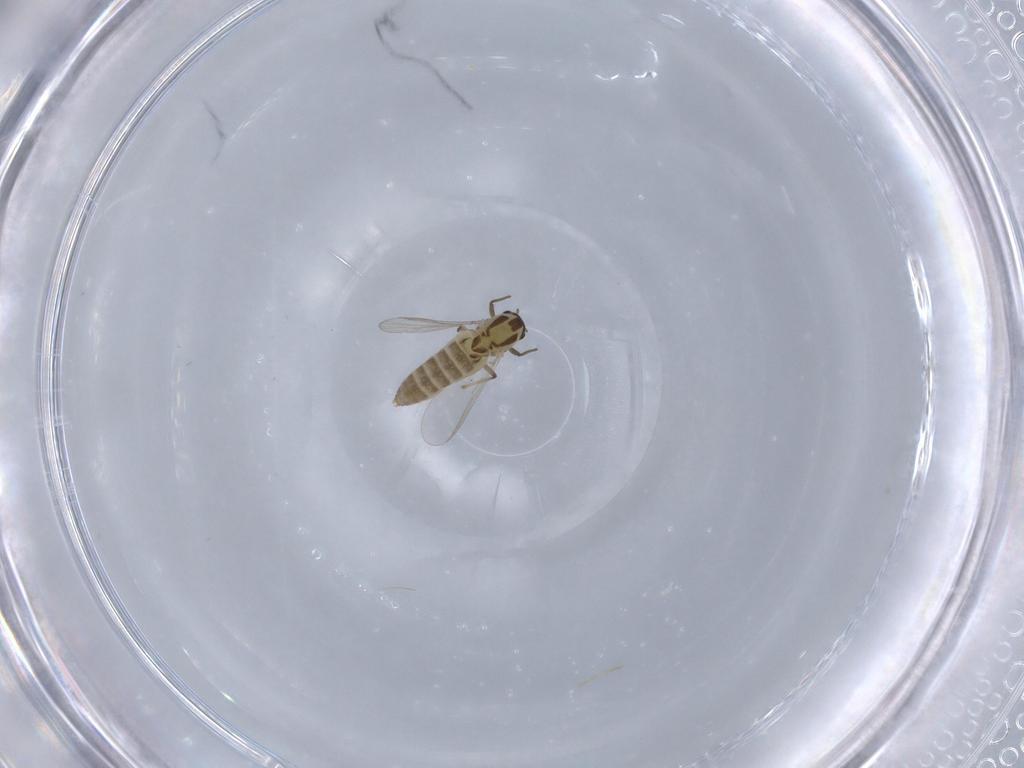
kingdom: Animalia
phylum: Arthropoda
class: Insecta
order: Diptera
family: Chironomidae
